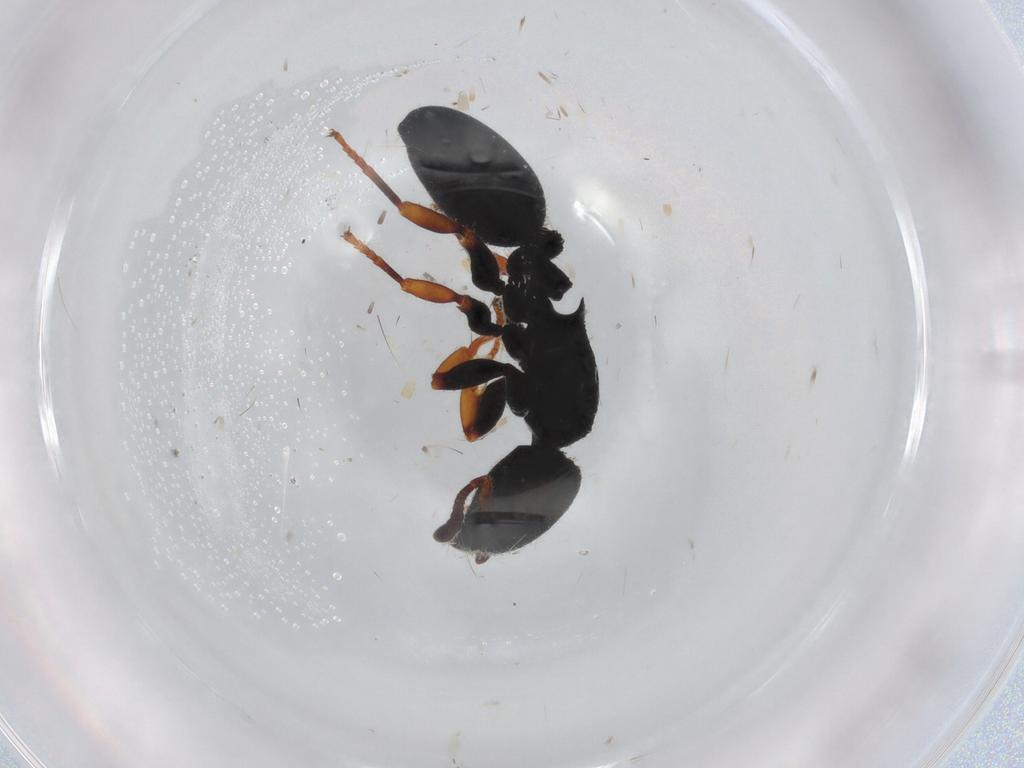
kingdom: Animalia
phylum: Arthropoda
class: Insecta
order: Hymenoptera
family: Formicidae
